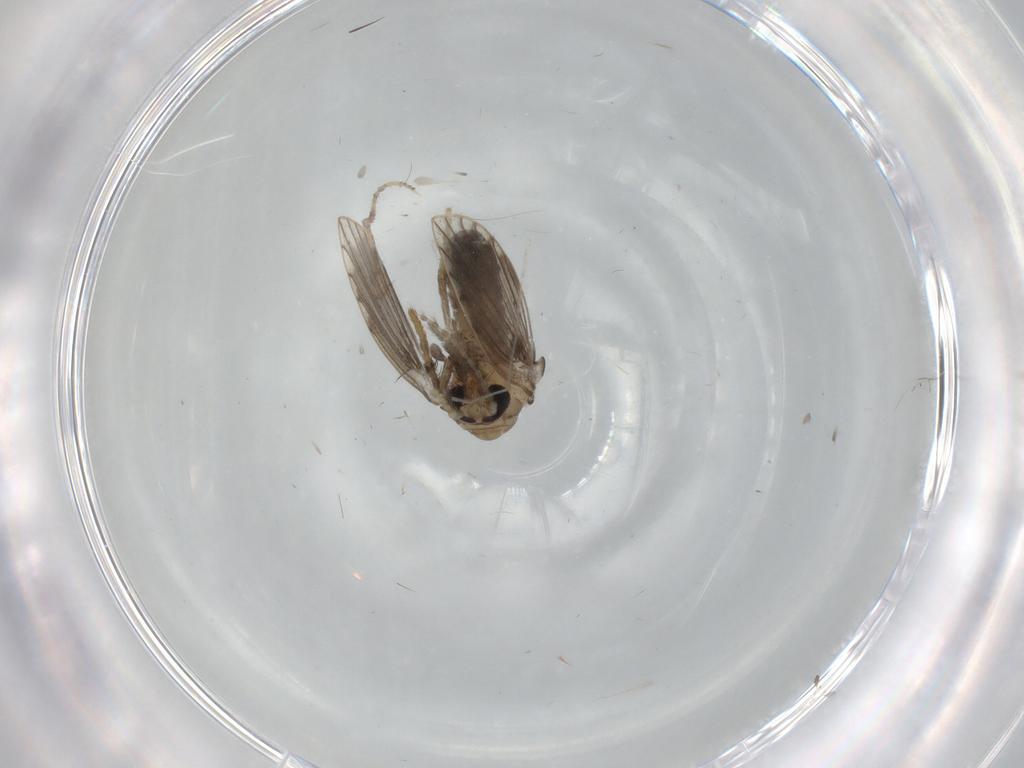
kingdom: Animalia
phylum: Arthropoda
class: Insecta
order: Diptera
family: Psychodidae
